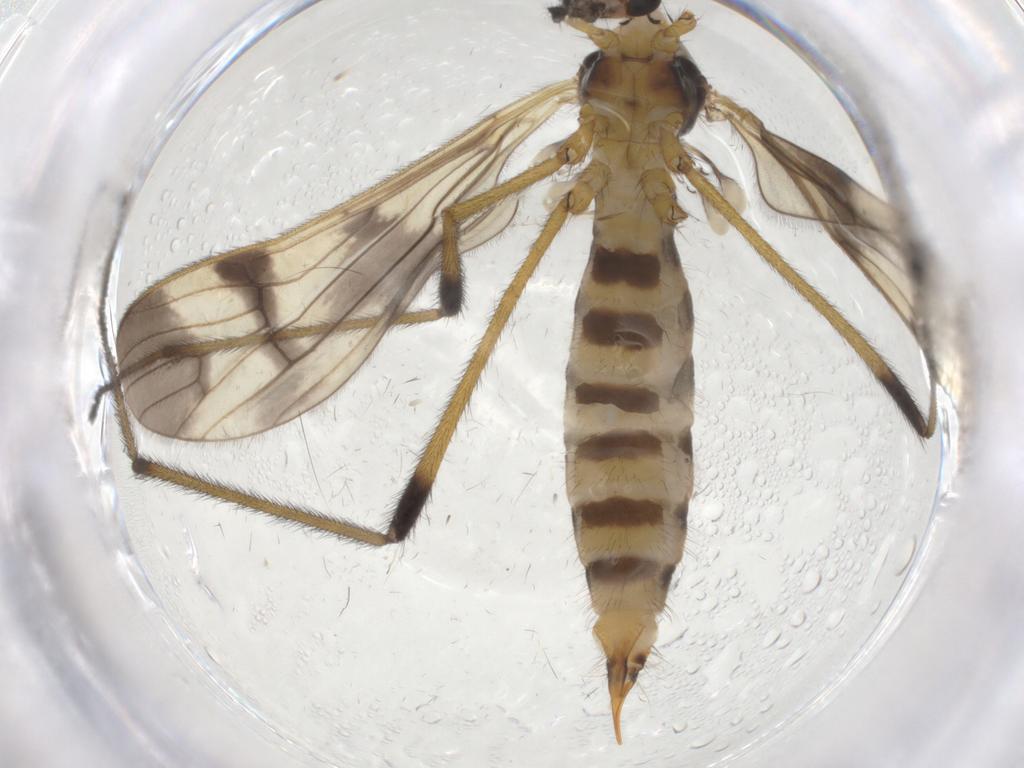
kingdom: Animalia
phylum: Arthropoda
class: Insecta
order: Diptera
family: Limoniidae
